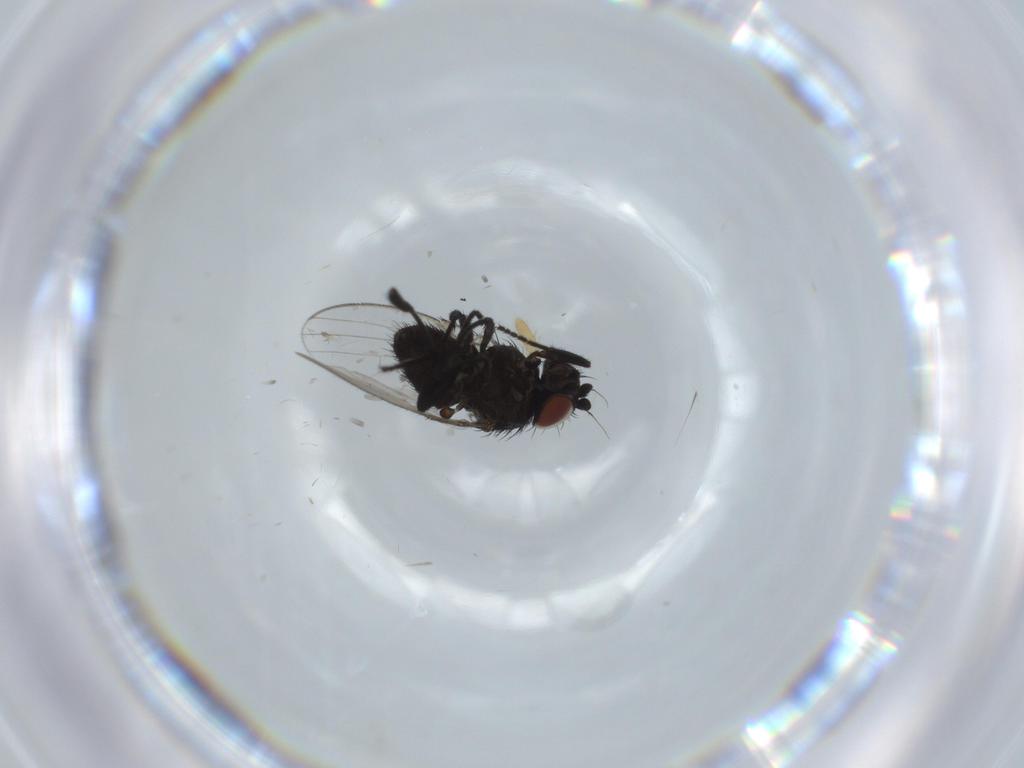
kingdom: Animalia
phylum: Arthropoda
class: Insecta
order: Diptera
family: Milichiidae
